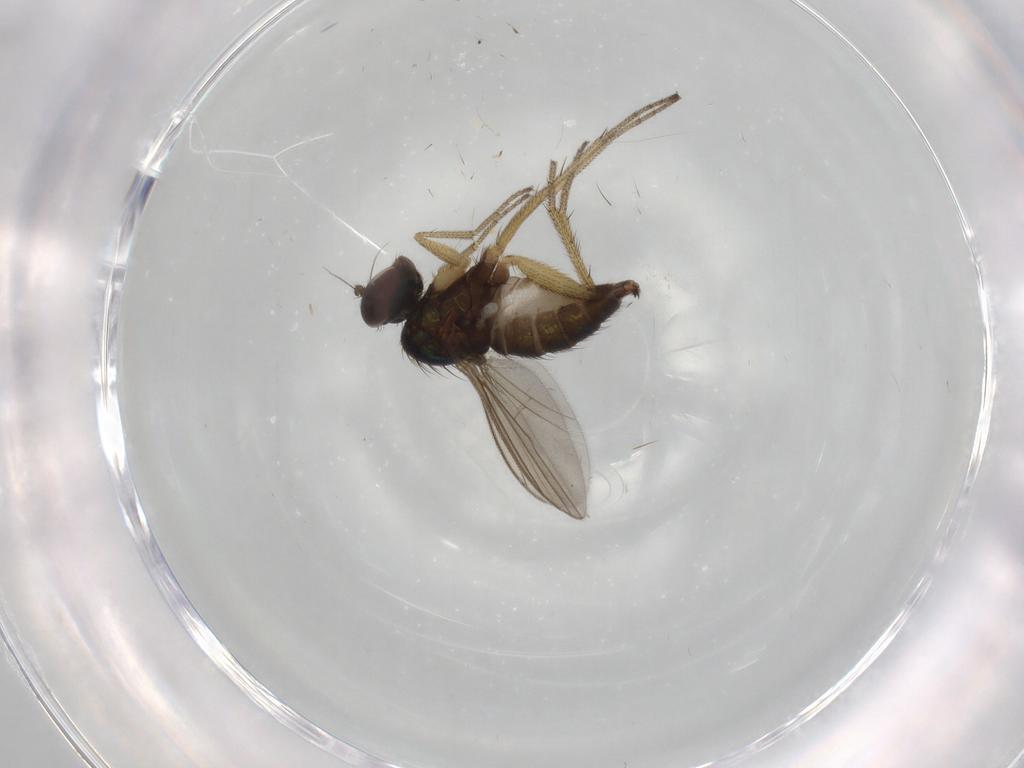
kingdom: Animalia
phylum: Arthropoda
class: Insecta
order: Diptera
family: Dolichopodidae
